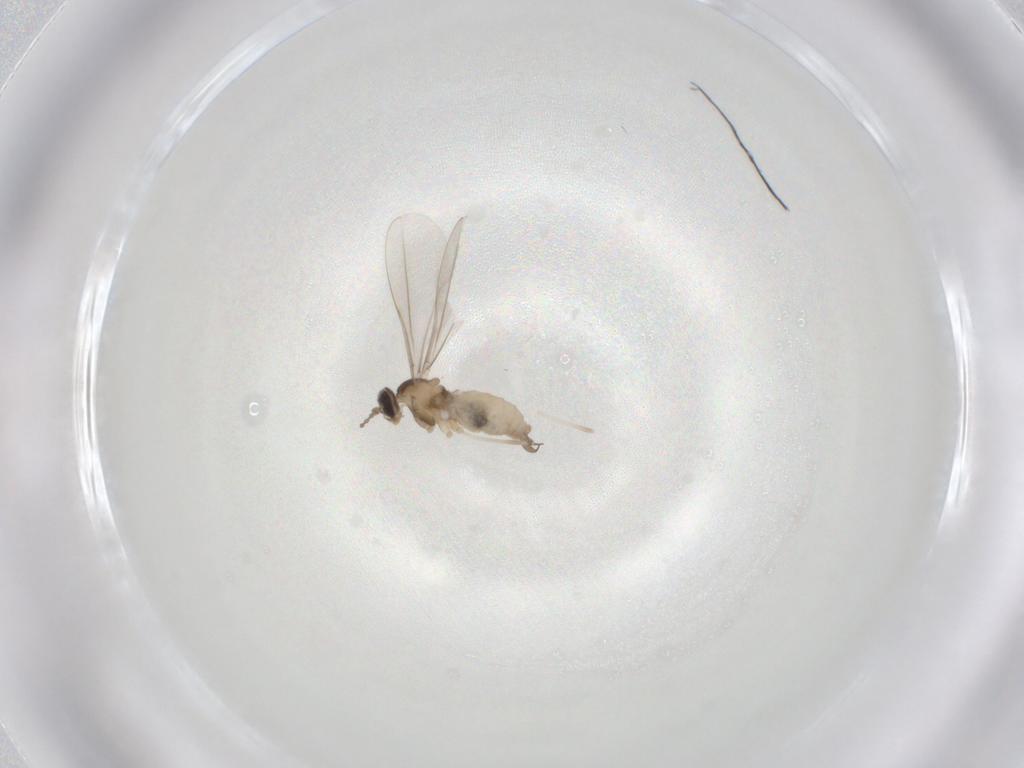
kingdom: Animalia
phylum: Arthropoda
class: Insecta
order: Diptera
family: Cecidomyiidae
